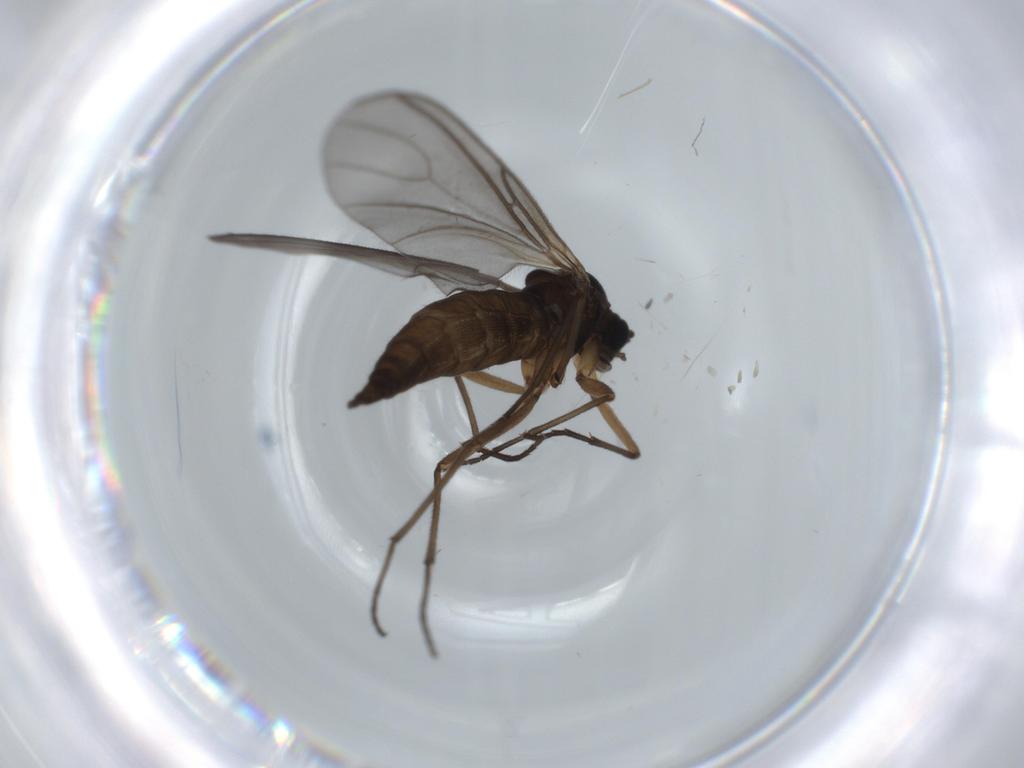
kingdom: Animalia
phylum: Arthropoda
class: Insecta
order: Diptera
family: Sciaridae
